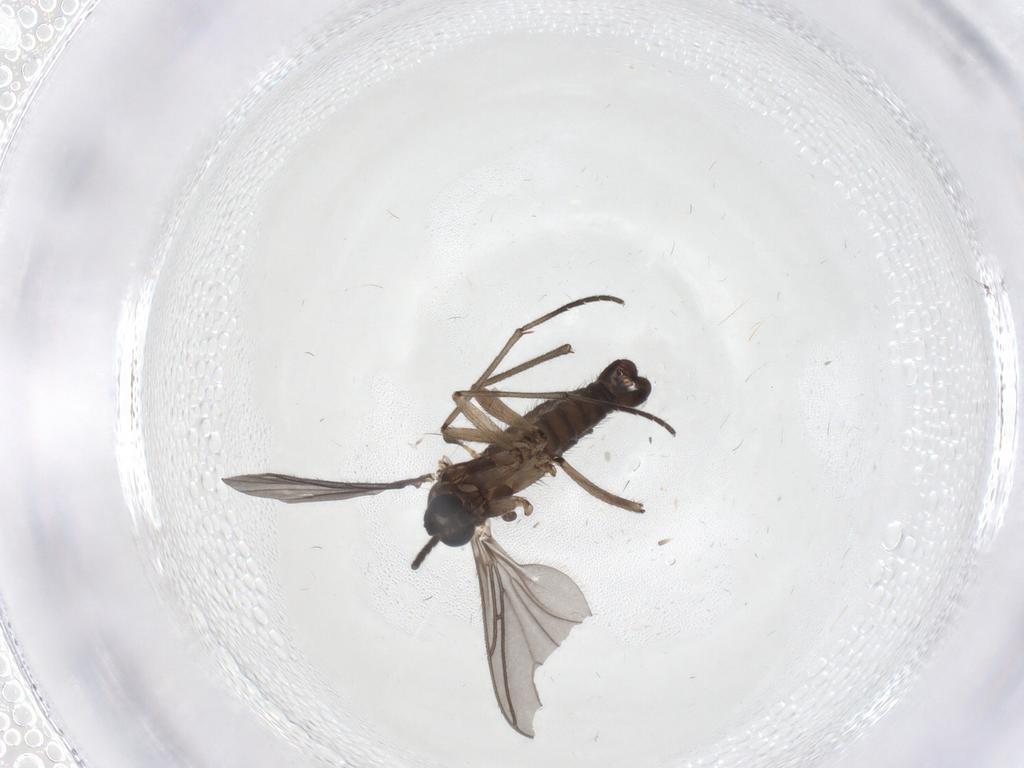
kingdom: Animalia
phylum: Arthropoda
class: Insecta
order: Diptera
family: Sciaridae
